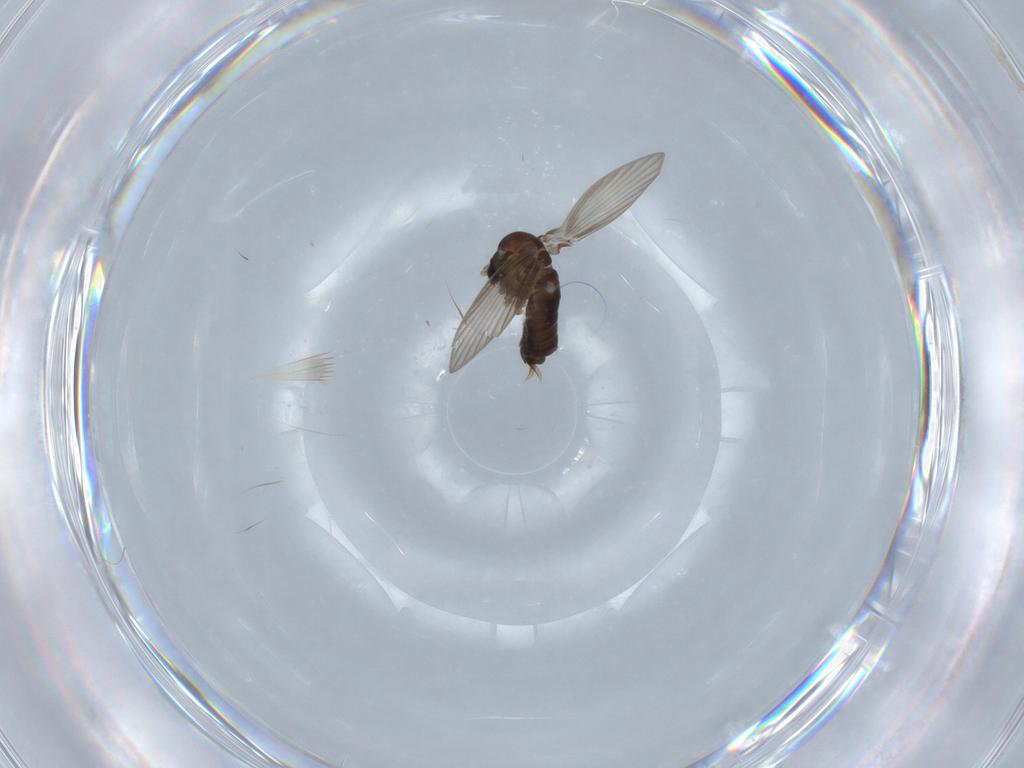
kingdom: Animalia
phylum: Arthropoda
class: Insecta
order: Diptera
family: Psychodidae
